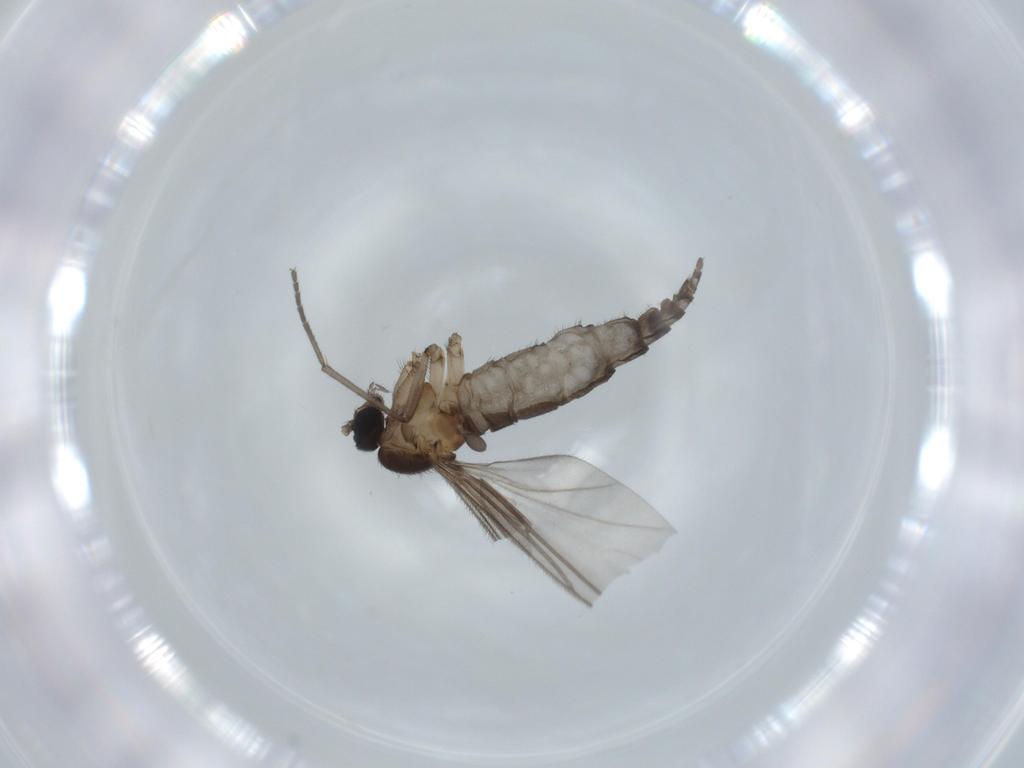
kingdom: Animalia
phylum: Arthropoda
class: Insecta
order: Diptera
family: Sciaridae
